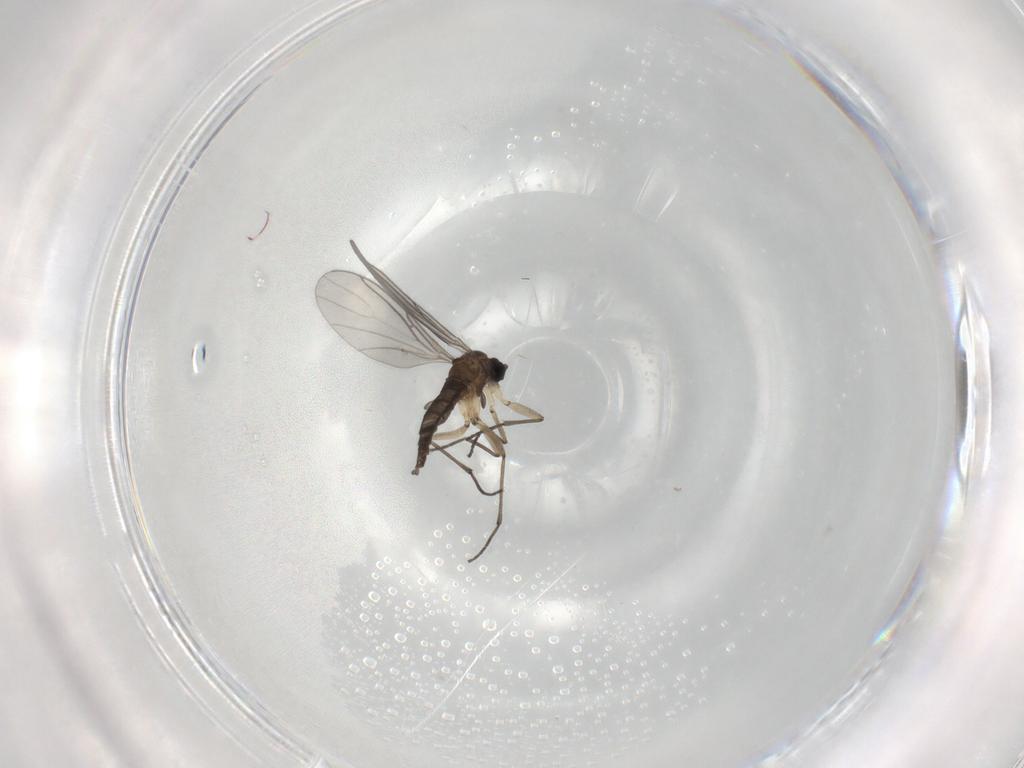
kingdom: Animalia
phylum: Arthropoda
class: Insecta
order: Diptera
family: Sciaridae
